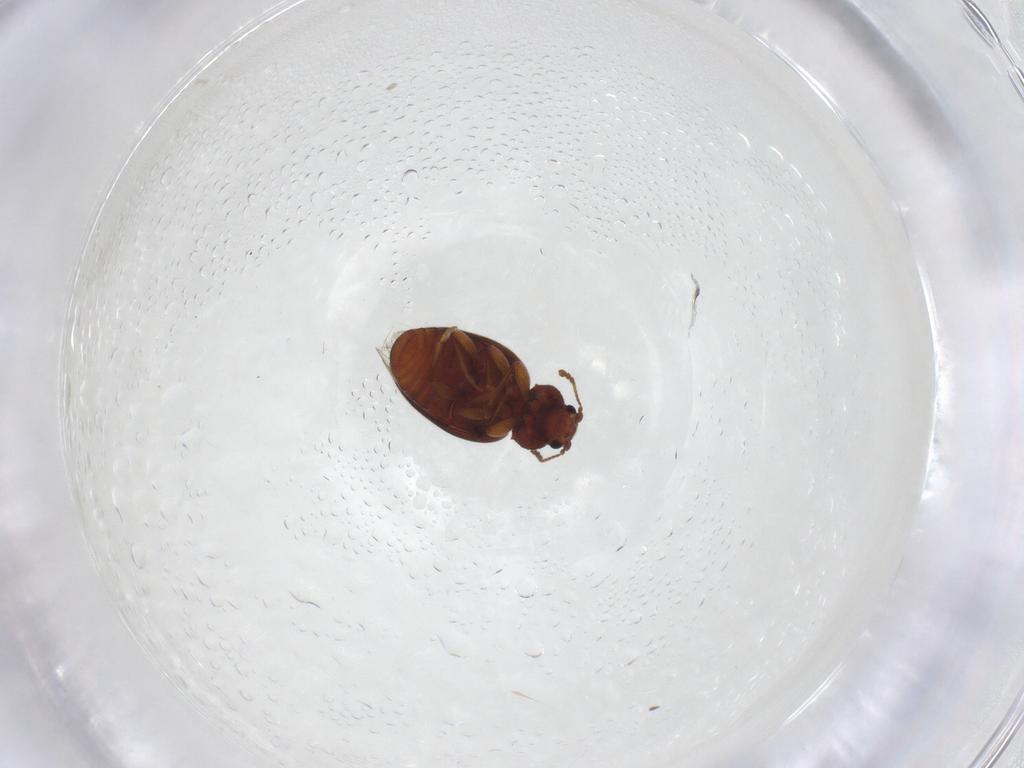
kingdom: Animalia
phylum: Arthropoda
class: Insecta
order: Coleoptera
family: Latridiidae
